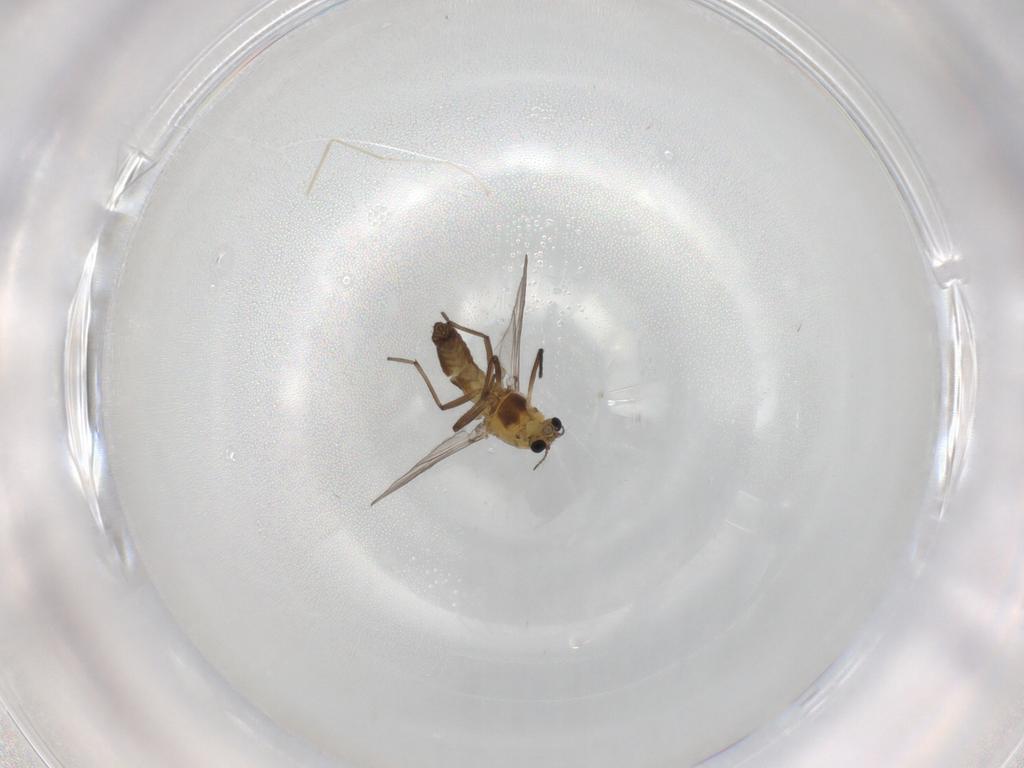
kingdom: Animalia
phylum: Arthropoda
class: Insecta
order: Diptera
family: Chironomidae
